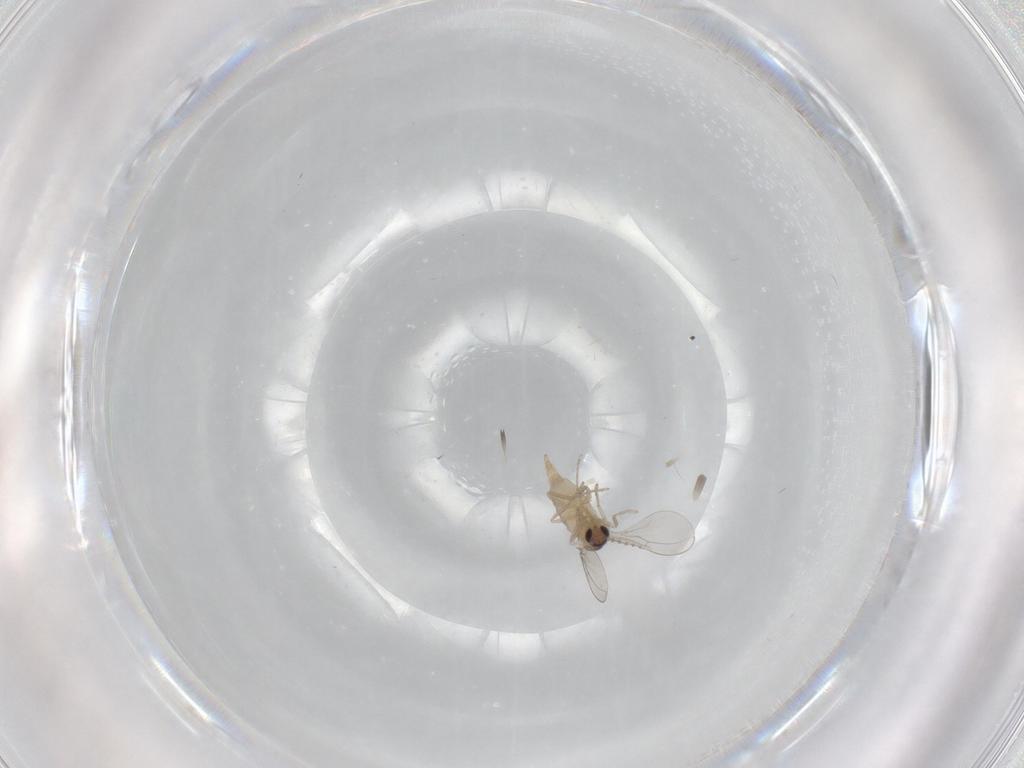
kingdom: Animalia
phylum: Arthropoda
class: Insecta
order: Diptera
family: Cecidomyiidae
